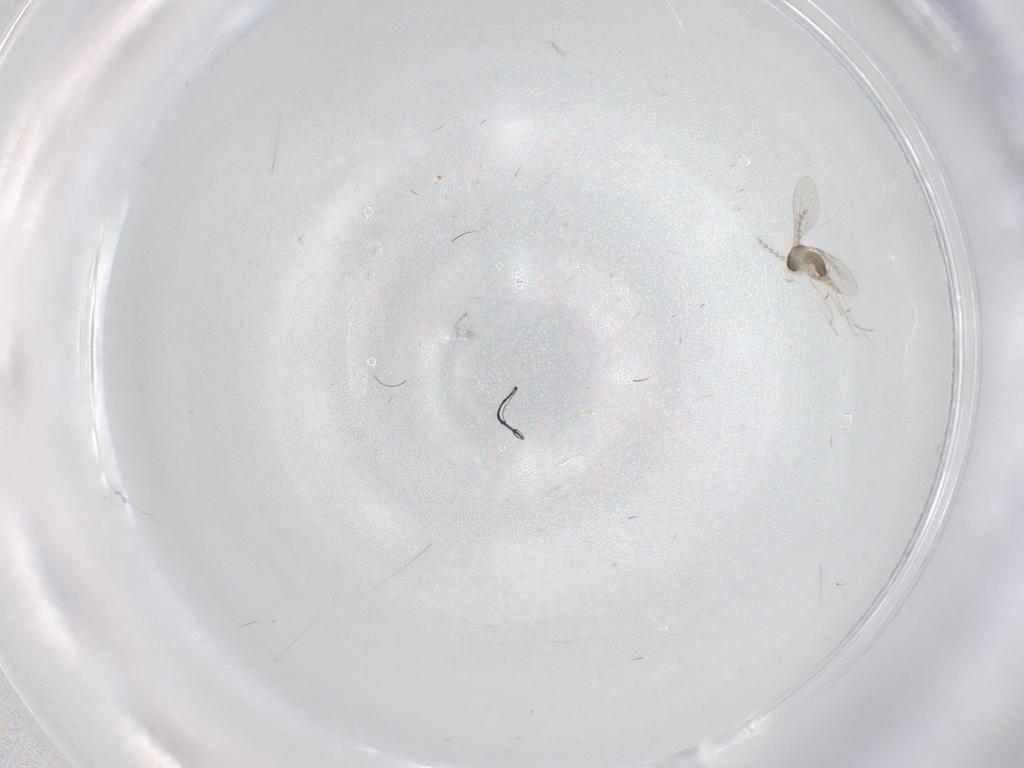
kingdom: Animalia
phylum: Arthropoda
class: Insecta
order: Diptera
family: Cecidomyiidae
